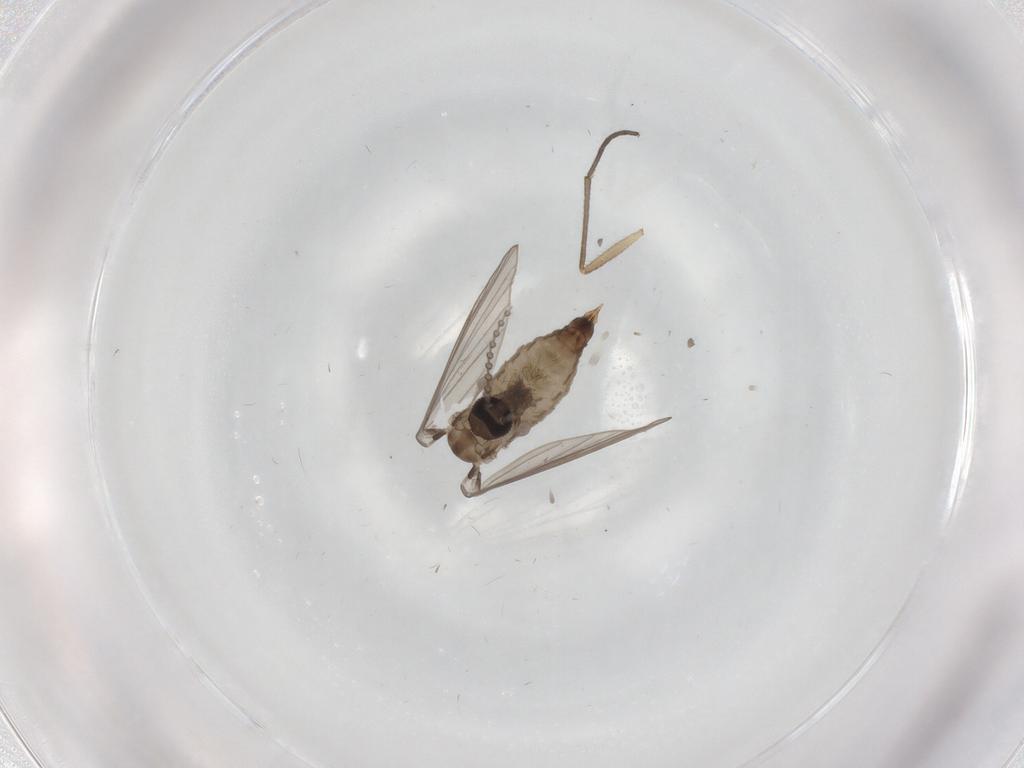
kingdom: Animalia
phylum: Arthropoda
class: Insecta
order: Diptera
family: Psychodidae
